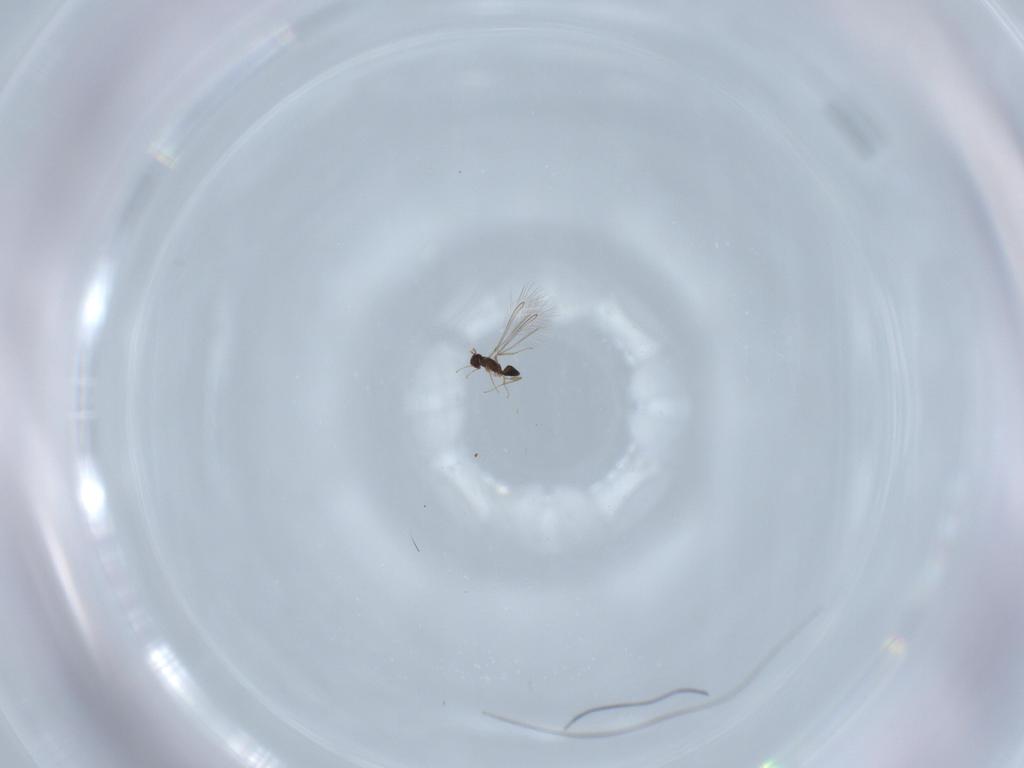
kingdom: Animalia
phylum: Arthropoda
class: Insecta
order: Hymenoptera
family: Mymaridae
